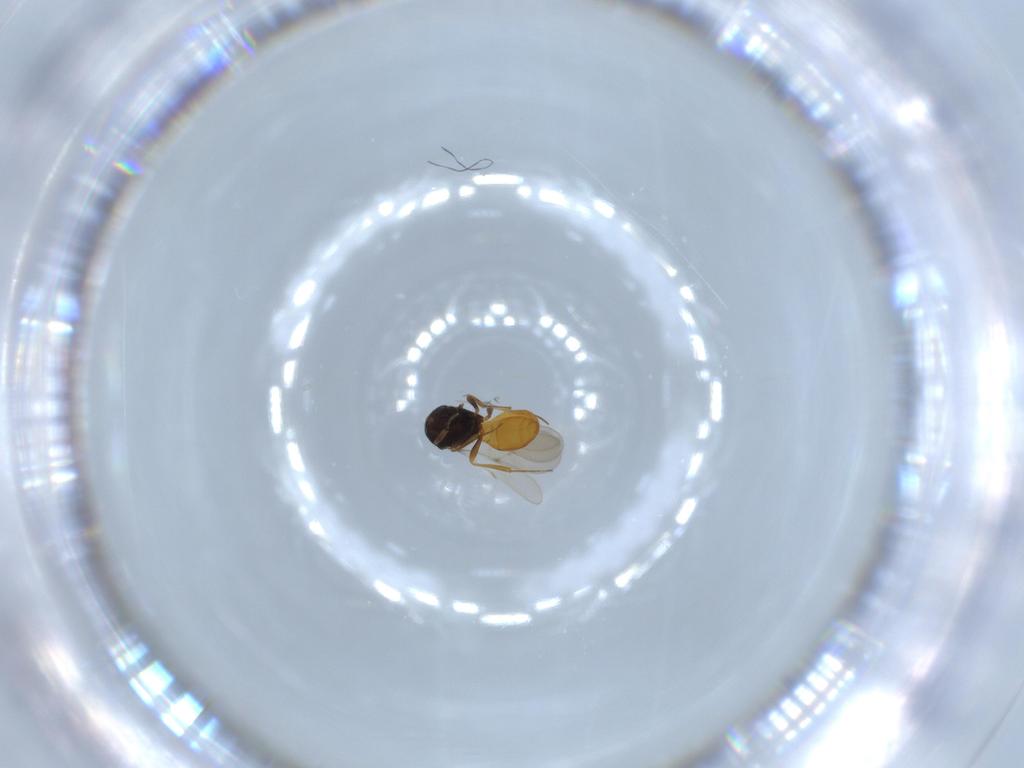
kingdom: Animalia
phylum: Arthropoda
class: Insecta
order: Hymenoptera
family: Scelionidae
